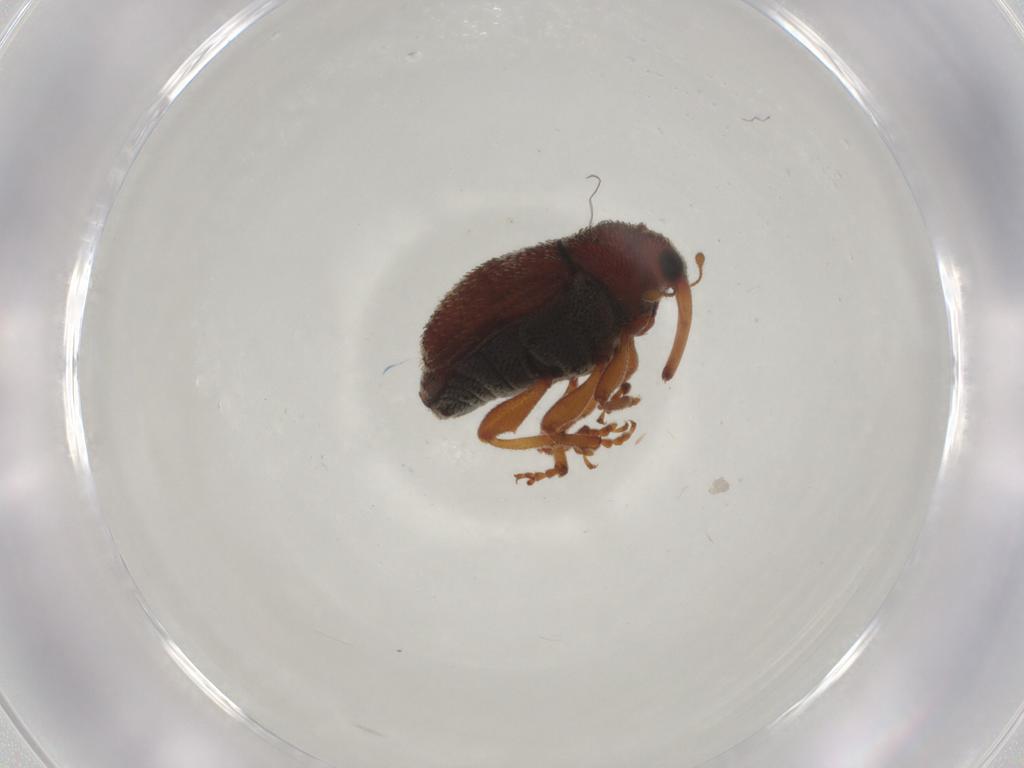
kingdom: Animalia
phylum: Arthropoda
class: Insecta
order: Coleoptera
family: Curculionidae
